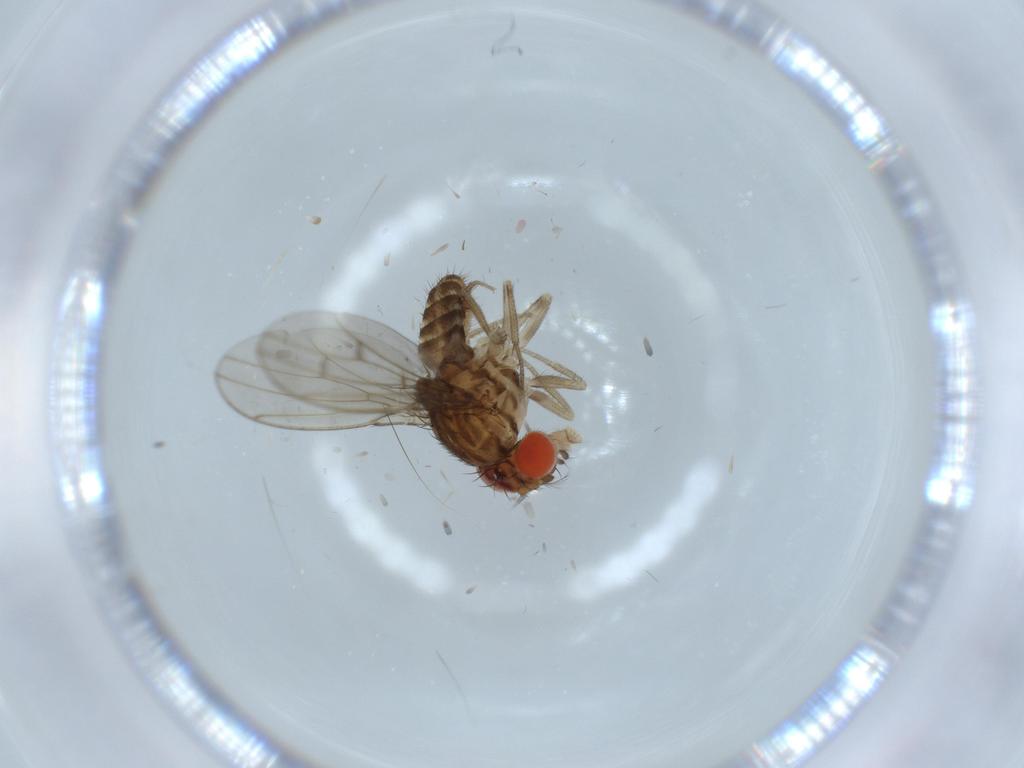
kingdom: Animalia
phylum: Arthropoda
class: Insecta
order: Diptera
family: Drosophilidae
